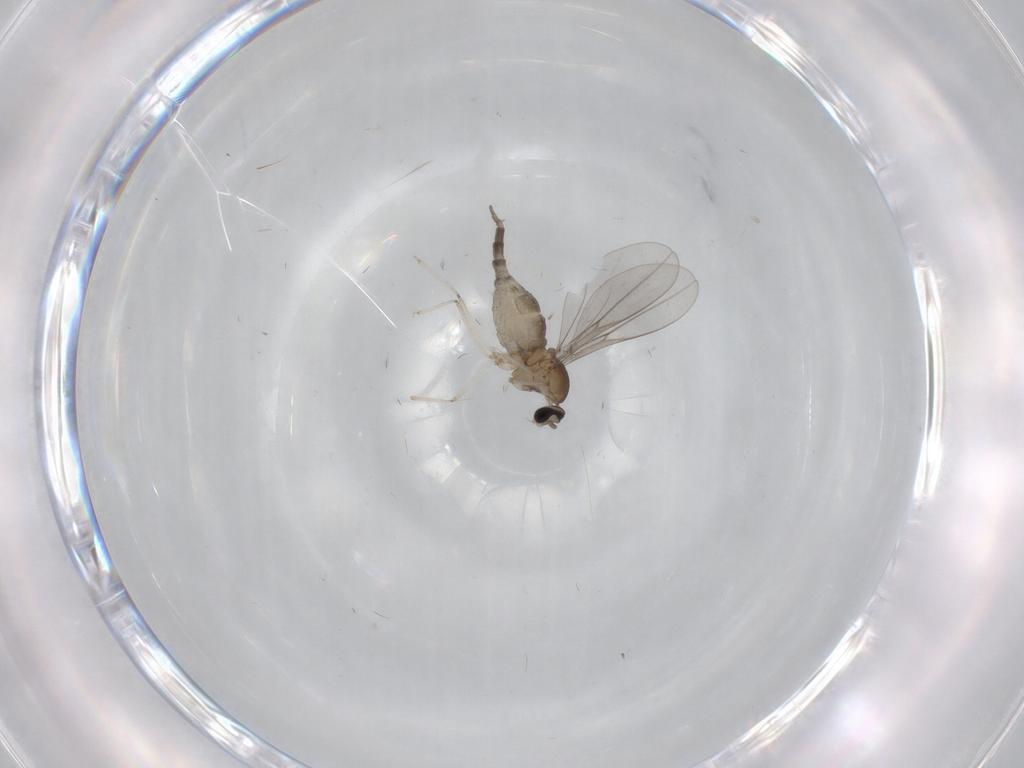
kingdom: Animalia
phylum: Arthropoda
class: Insecta
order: Diptera
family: Cecidomyiidae
